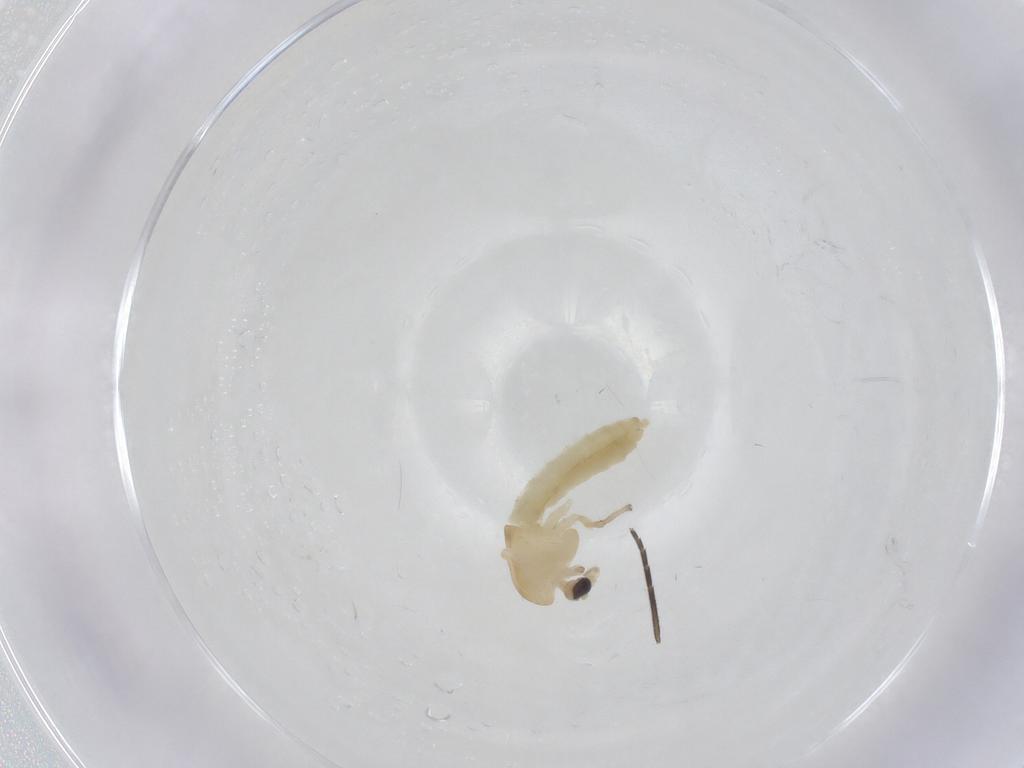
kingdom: Animalia
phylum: Arthropoda
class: Insecta
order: Diptera
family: Chironomidae
